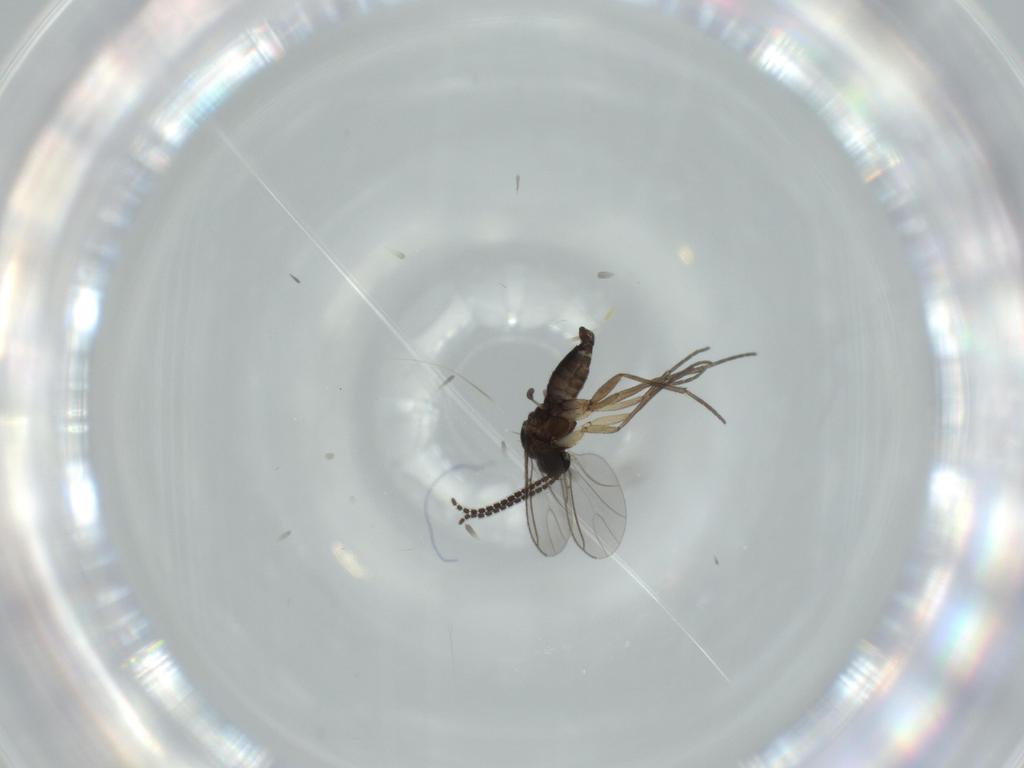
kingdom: Animalia
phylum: Arthropoda
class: Insecta
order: Diptera
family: Sciaridae
